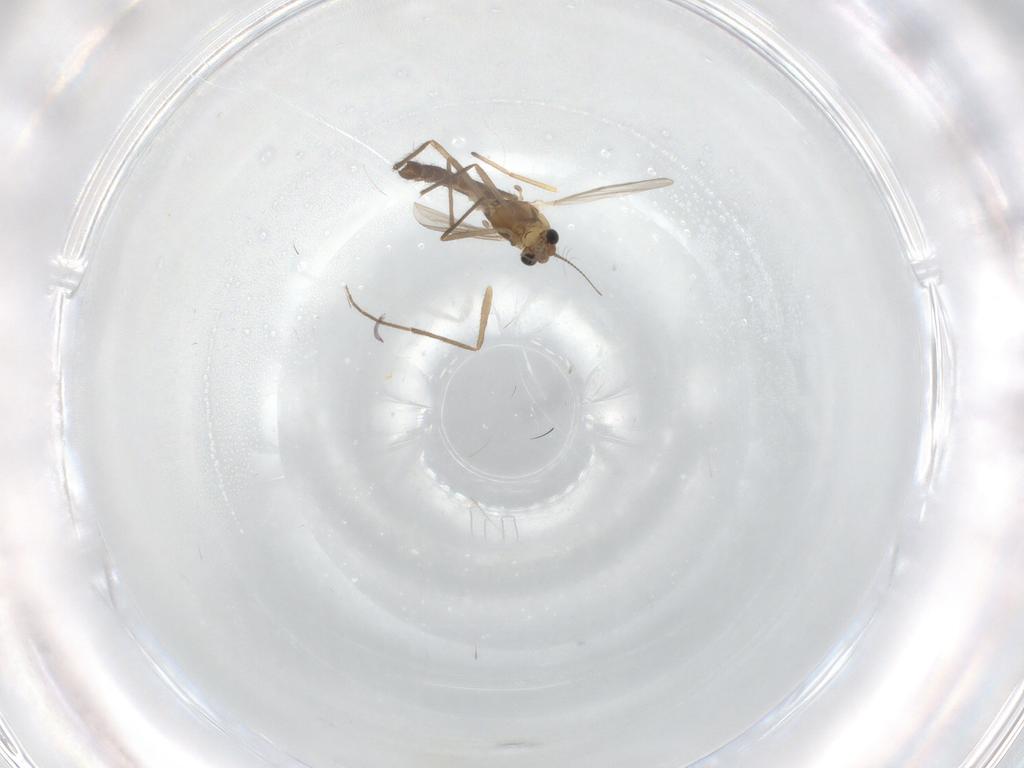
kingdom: Animalia
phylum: Arthropoda
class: Insecta
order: Diptera
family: Chironomidae
